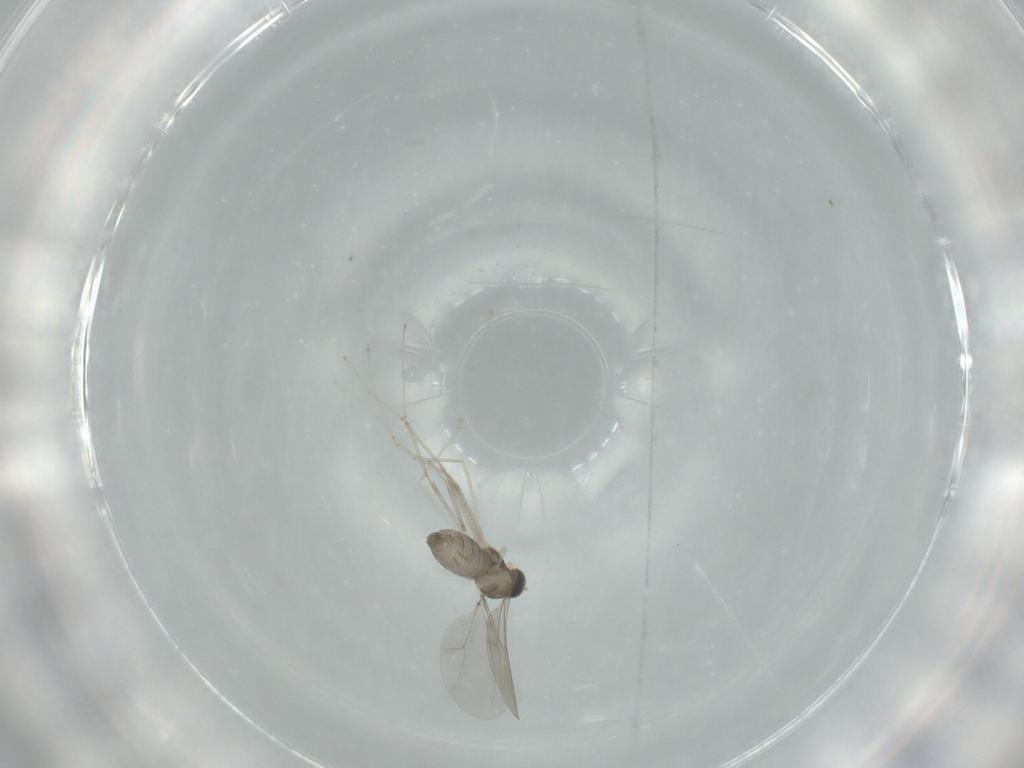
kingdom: Animalia
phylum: Arthropoda
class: Insecta
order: Diptera
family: Cecidomyiidae
